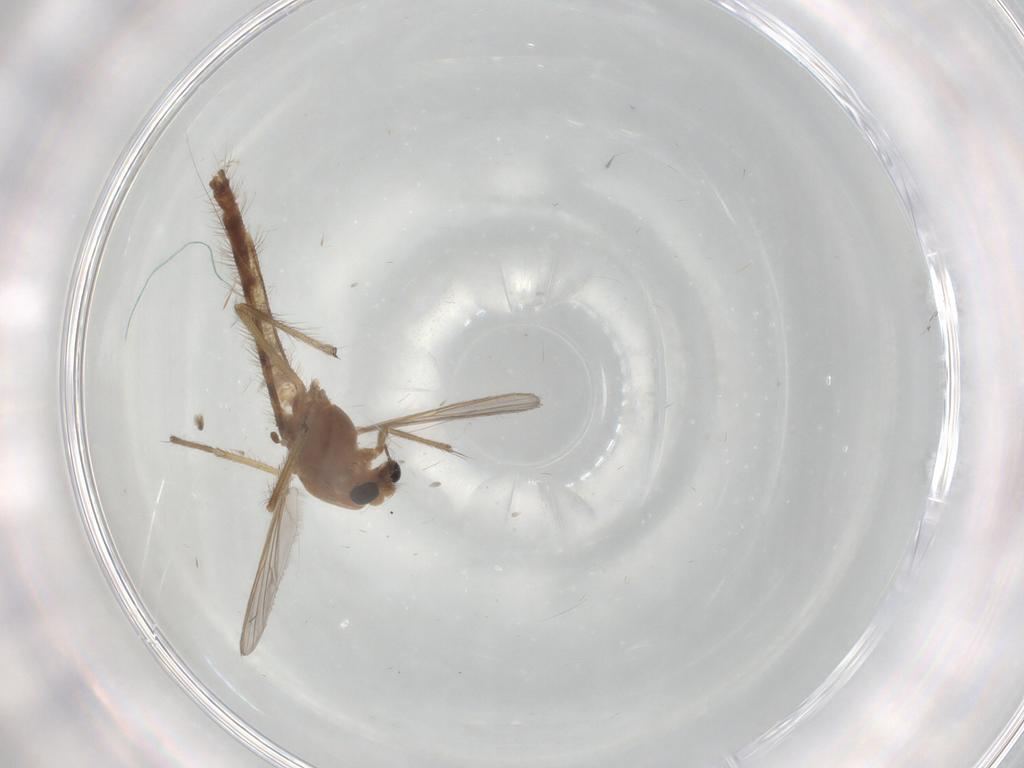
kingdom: Animalia
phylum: Arthropoda
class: Insecta
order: Diptera
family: Chironomidae
